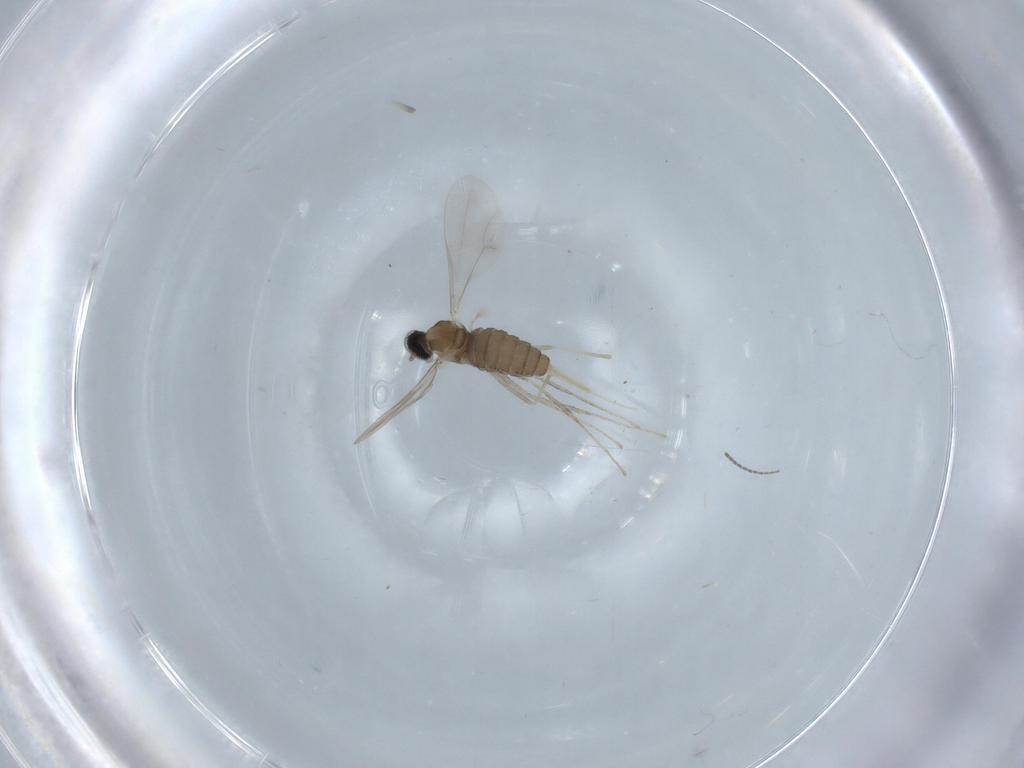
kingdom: Animalia
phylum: Arthropoda
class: Insecta
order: Diptera
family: Cecidomyiidae
